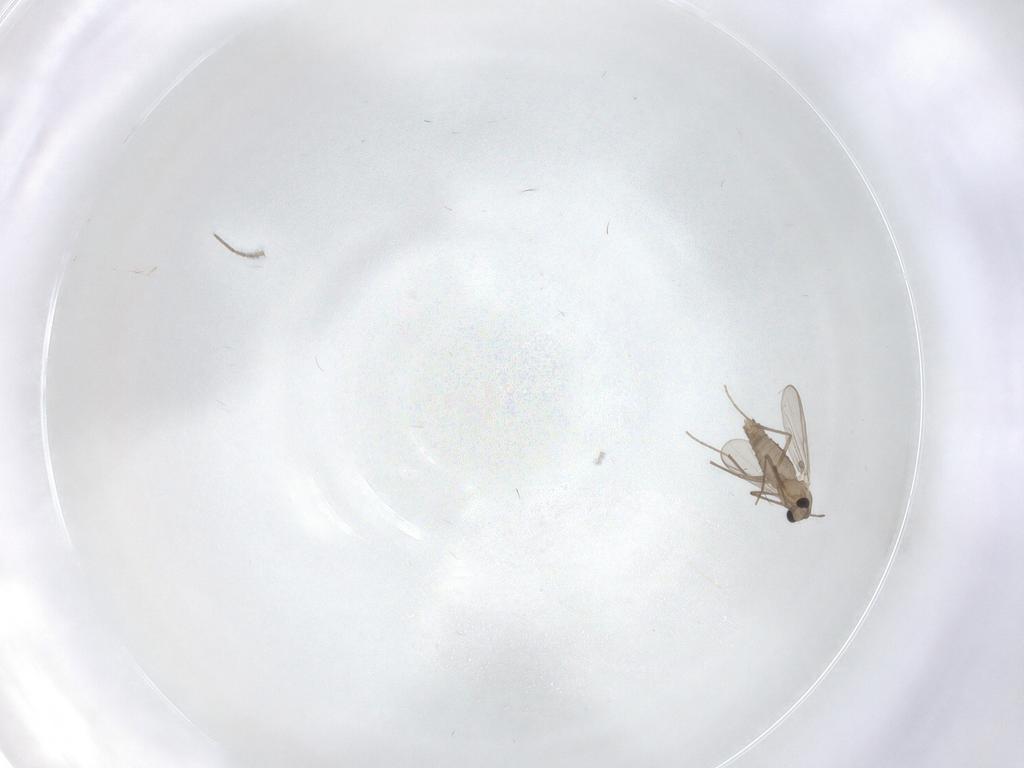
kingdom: Animalia
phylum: Arthropoda
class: Insecta
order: Diptera
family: Chironomidae
